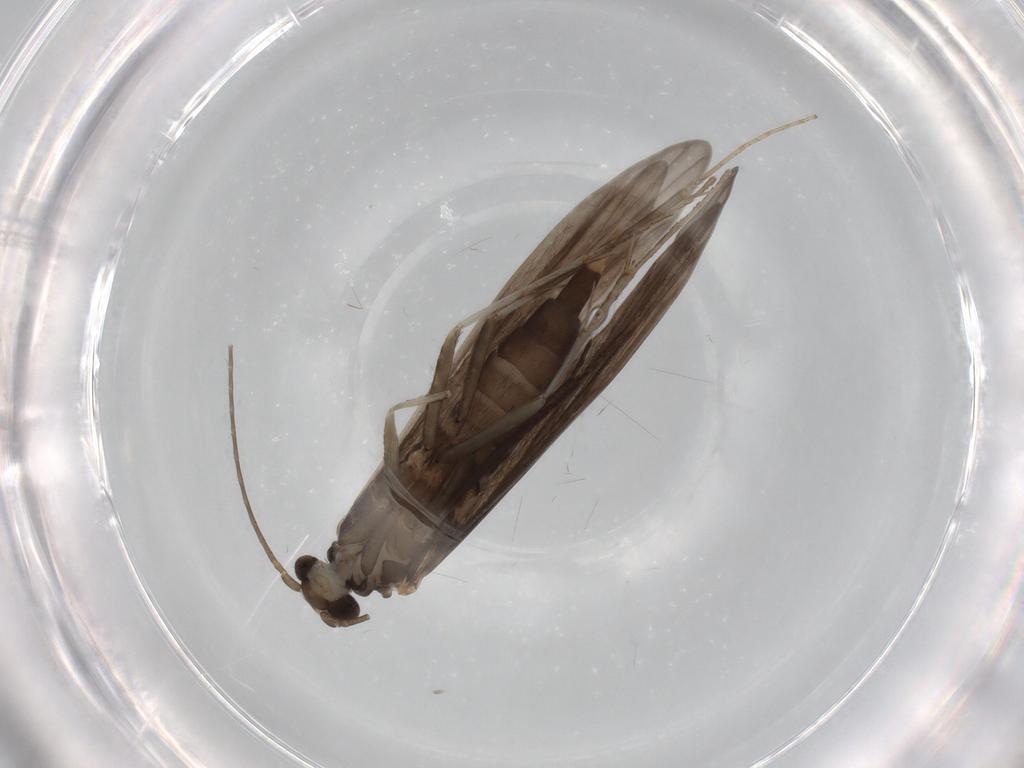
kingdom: Animalia
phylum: Arthropoda
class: Insecta
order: Trichoptera
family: Xiphocentronidae
